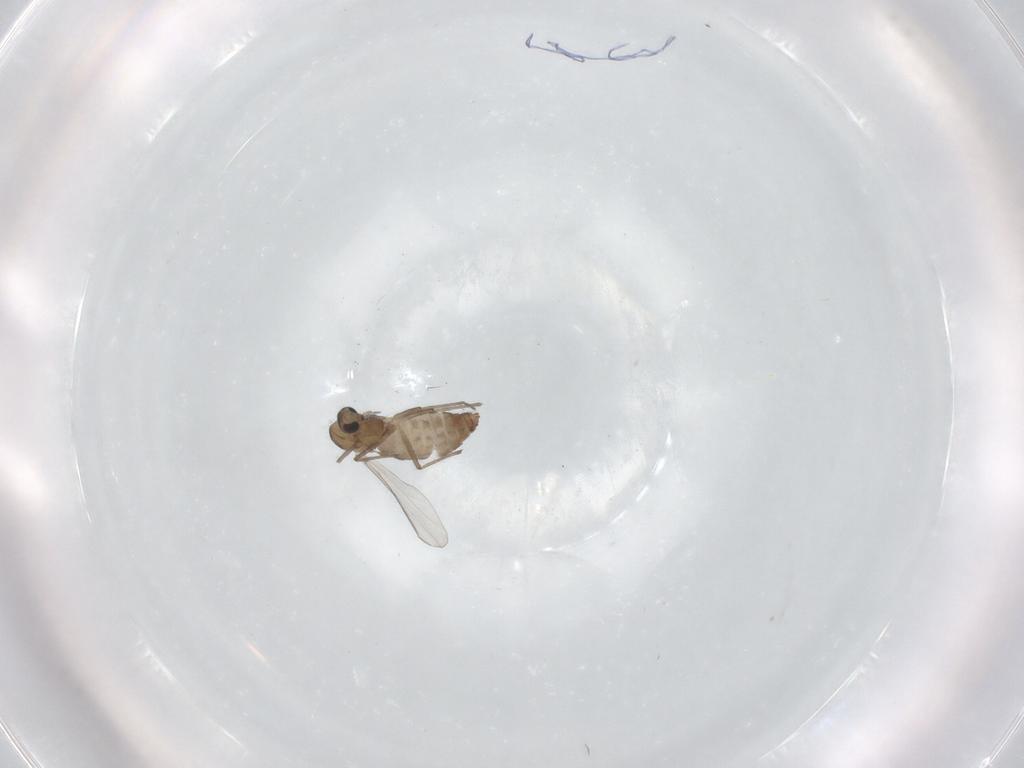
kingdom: Animalia
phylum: Arthropoda
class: Insecta
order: Diptera
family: Chironomidae
